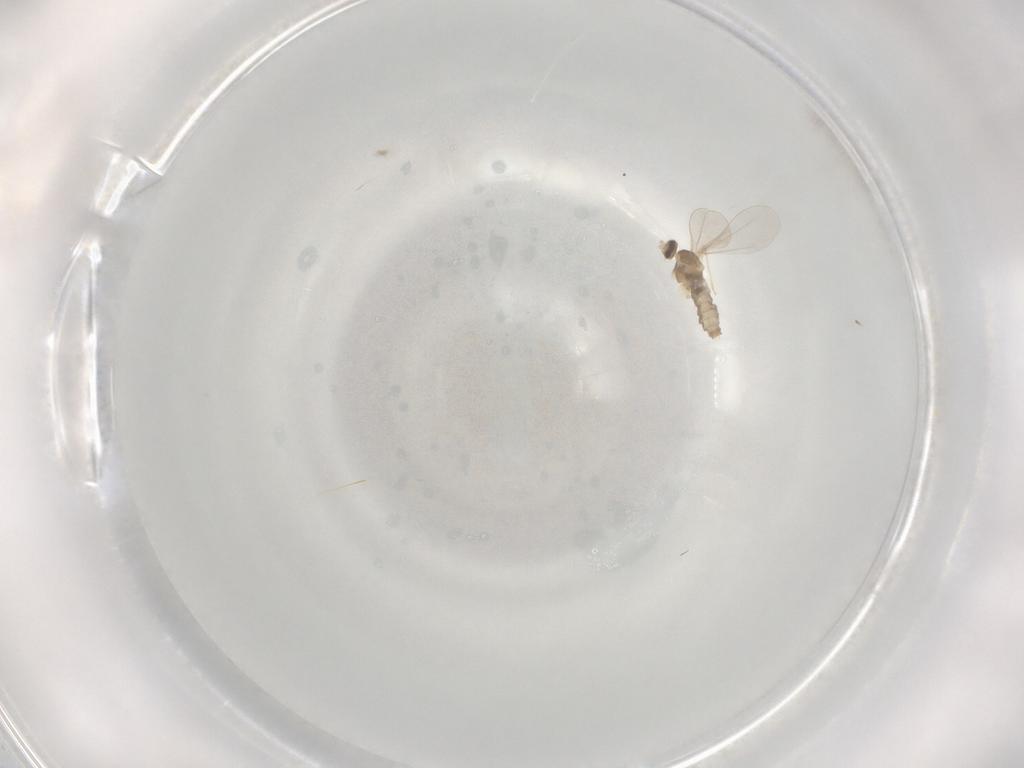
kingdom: Animalia
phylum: Arthropoda
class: Insecta
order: Diptera
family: Cecidomyiidae
